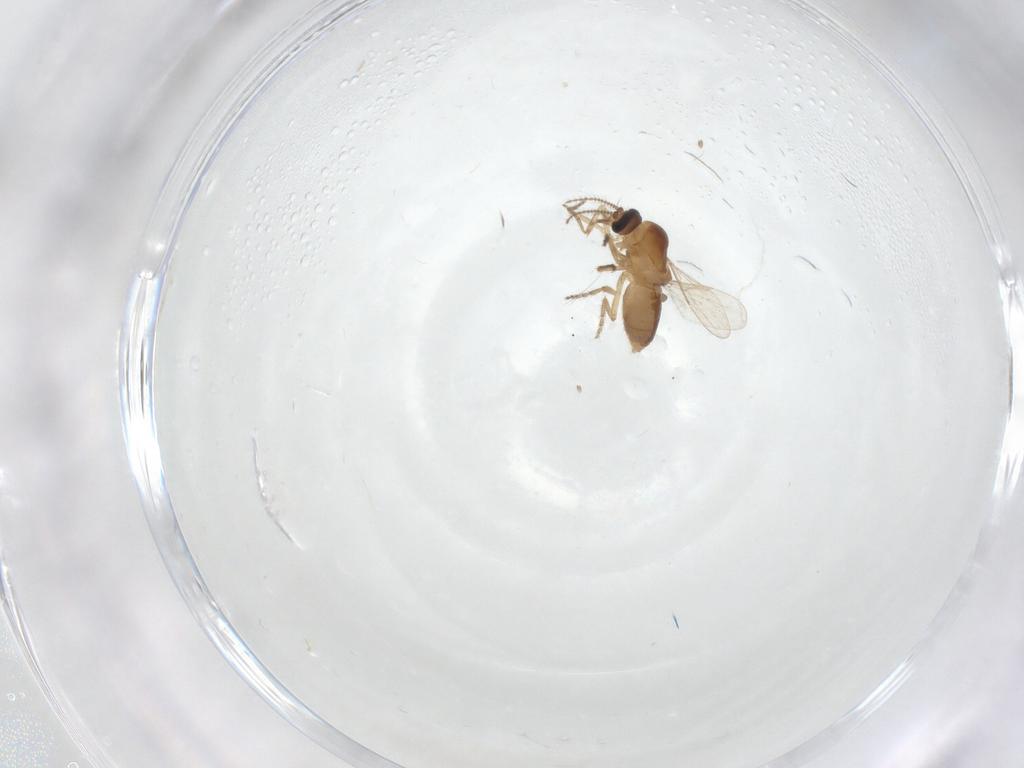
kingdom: Animalia
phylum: Arthropoda
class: Insecta
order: Diptera
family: Ceratopogonidae
